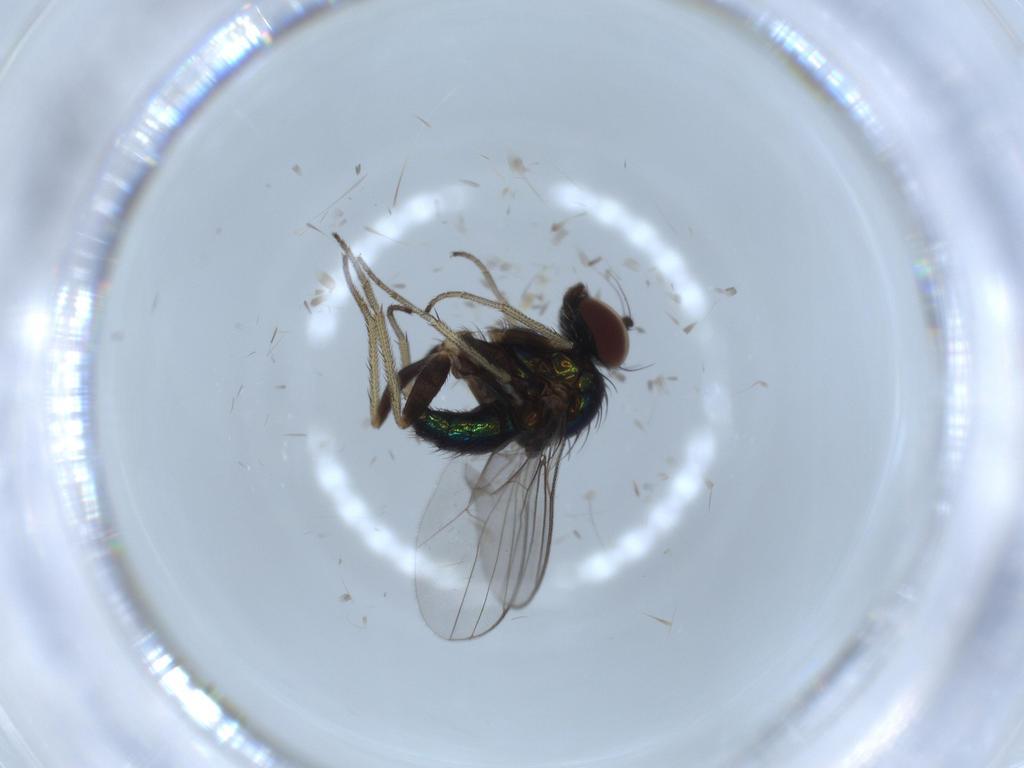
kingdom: Animalia
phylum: Arthropoda
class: Insecta
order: Diptera
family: Dolichopodidae
